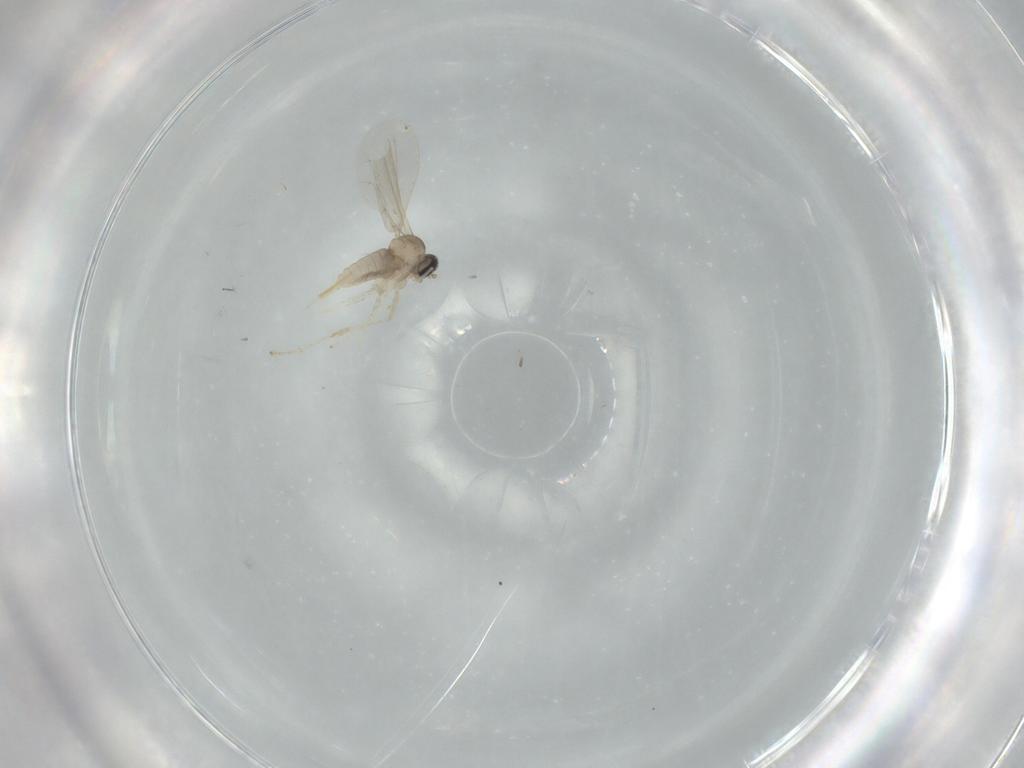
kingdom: Animalia
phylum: Arthropoda
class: Insecta
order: Diptera
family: Cecidomyiidae
